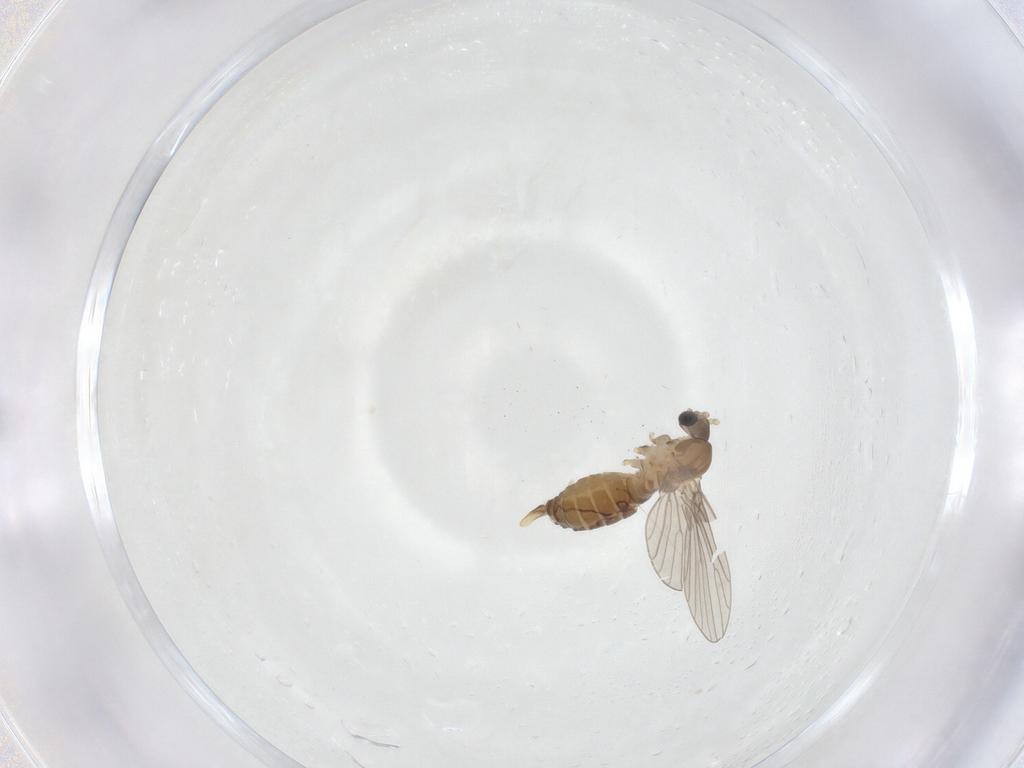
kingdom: Animalia
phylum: Arthropoda
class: Insecta
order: Diptera
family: Psychodidae
